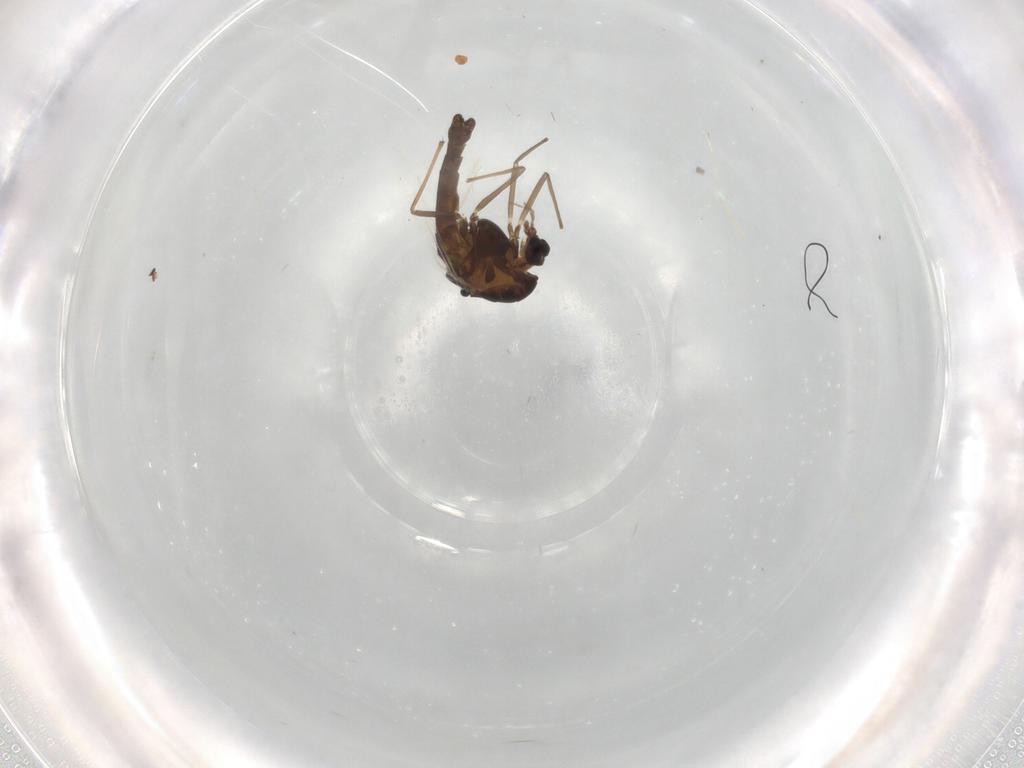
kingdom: Animalia
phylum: Arthropoda
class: Insecta
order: Diptera
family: Chironomidae
